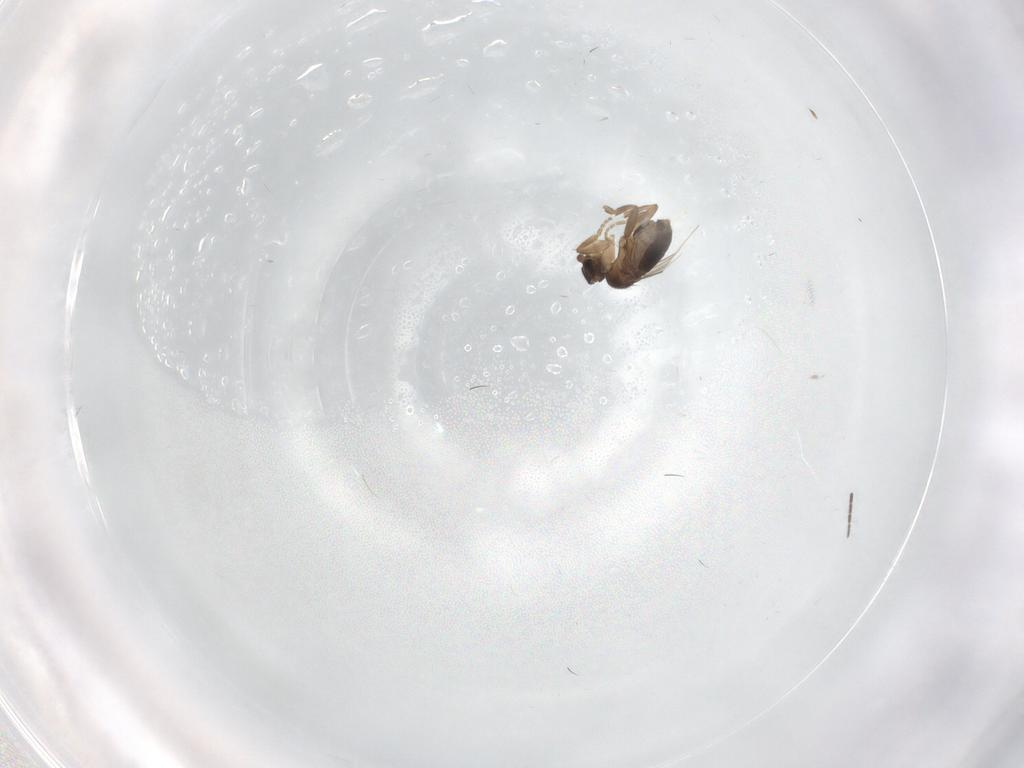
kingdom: Animalia
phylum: Arthropoda
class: Insecta
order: Diptera
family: Phoridae
